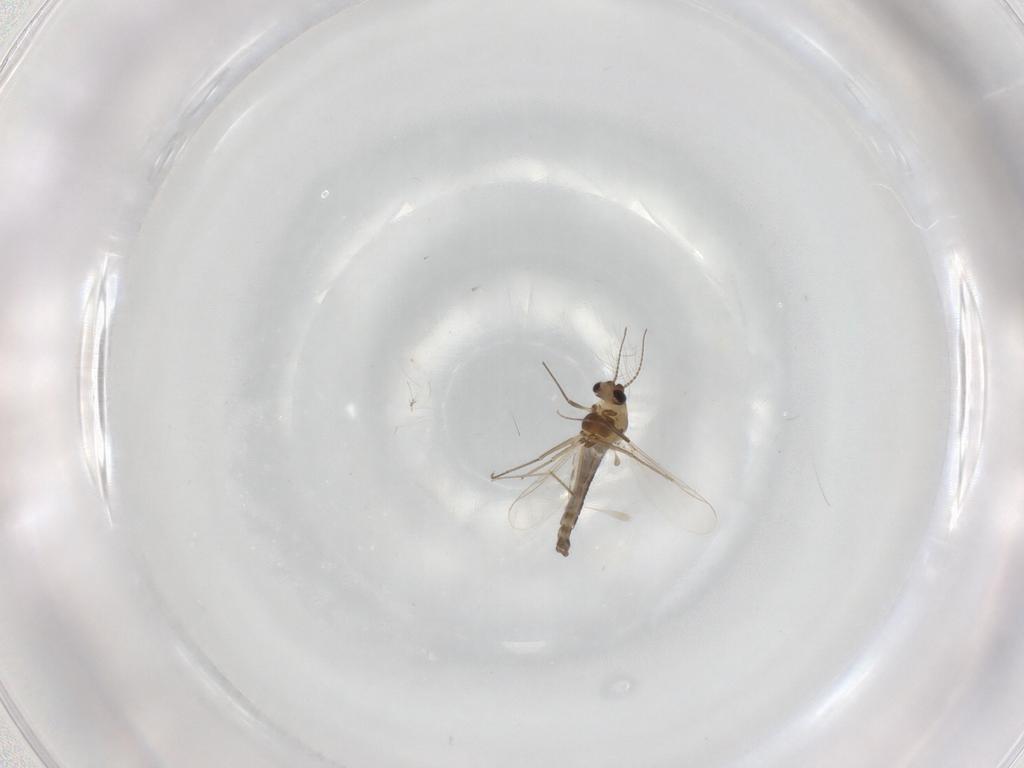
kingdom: Animalia
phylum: Arthropoda
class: Insecta
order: Diptera
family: Chironomidae
